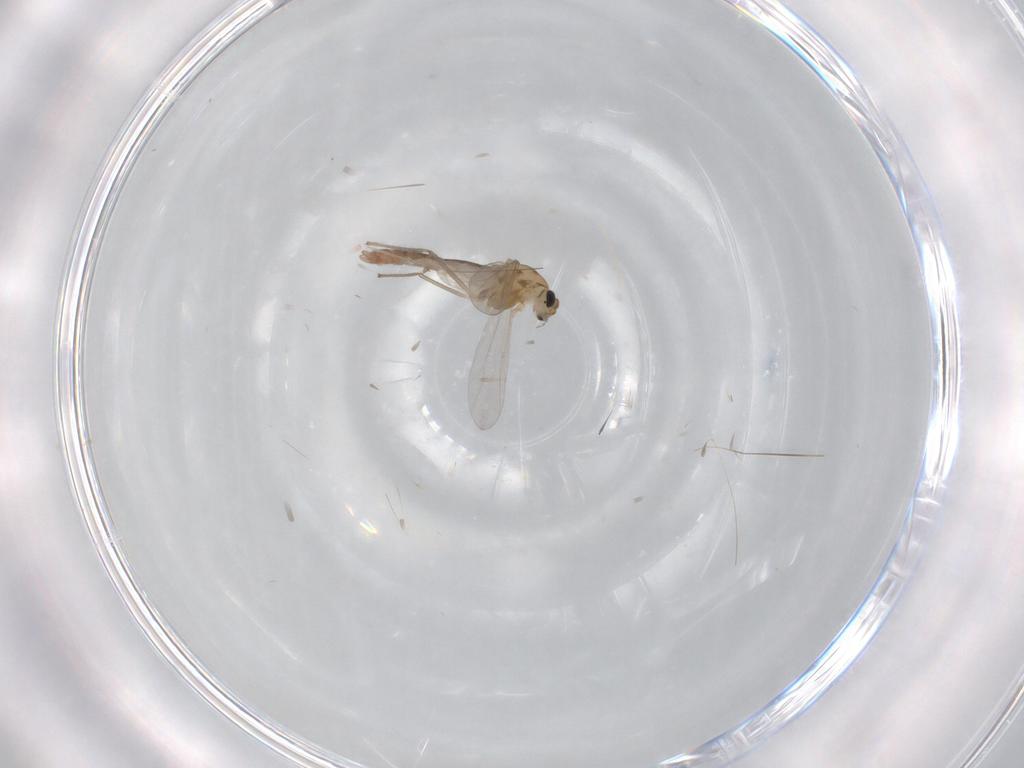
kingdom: Animalia
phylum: Arthropoda
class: Insecta
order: Diptera
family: Chironomidae
